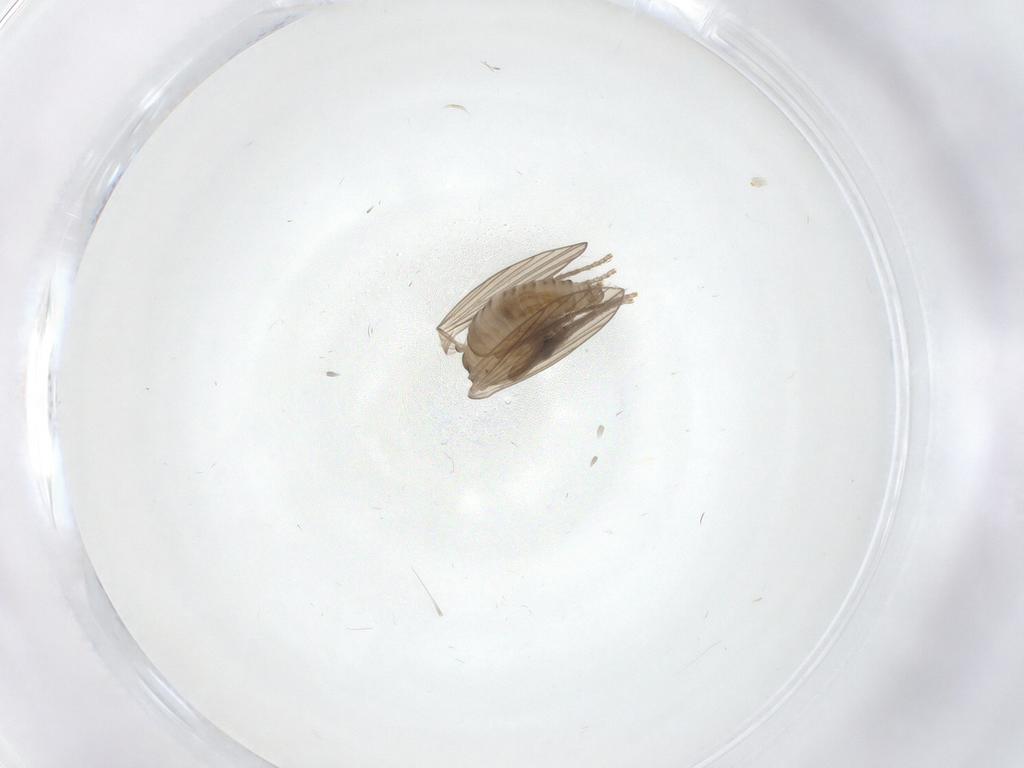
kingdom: Animalia
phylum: Arthropoda
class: Insecta
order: Diptera
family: Psychodidae
